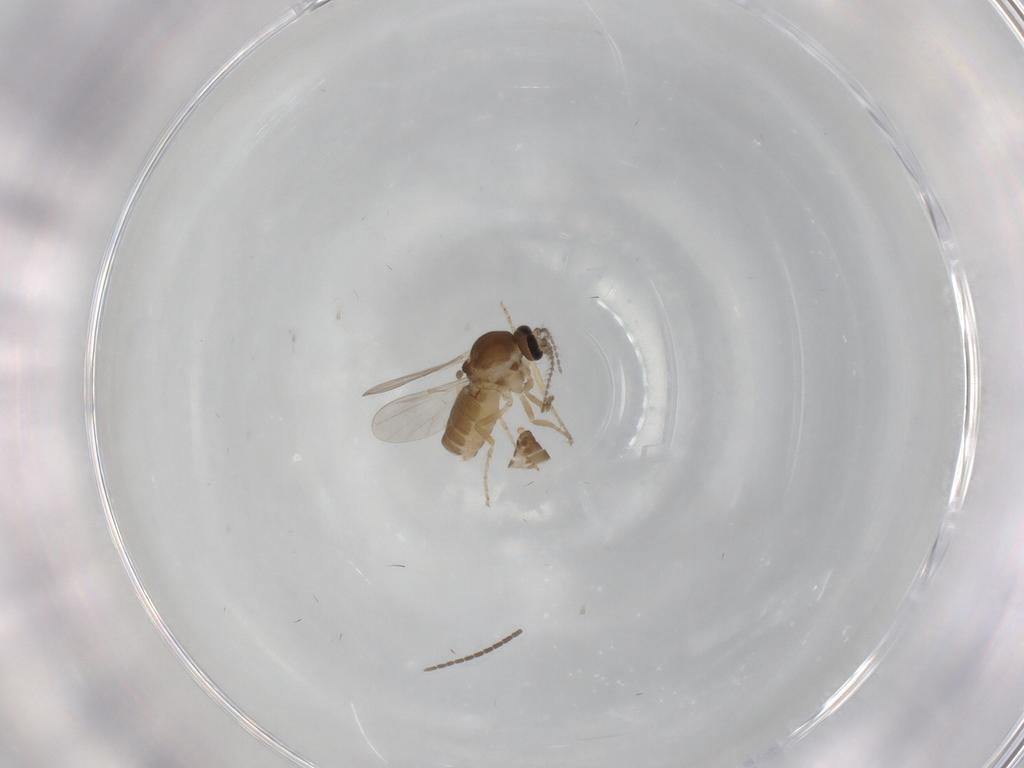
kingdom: Animalia
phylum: Arthropoda
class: Insecta
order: Diptera
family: Ceratopogonidae
